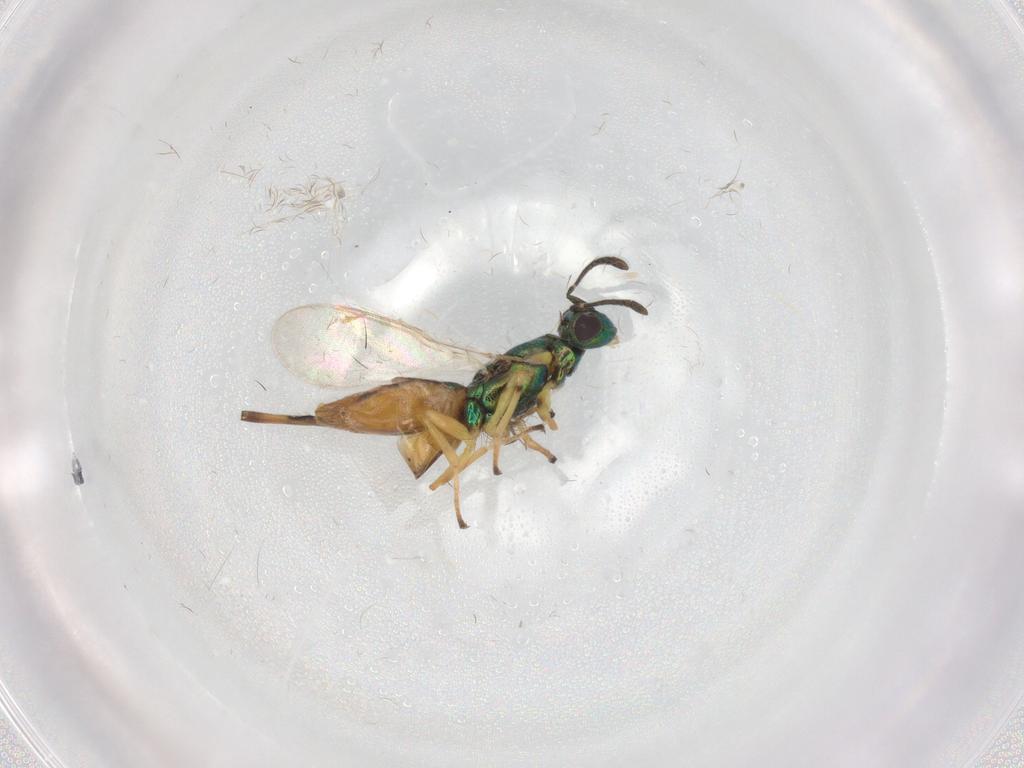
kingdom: Animalia
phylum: Arthropoda
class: Insecta
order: Hymenoptera
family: Eupelmidae
